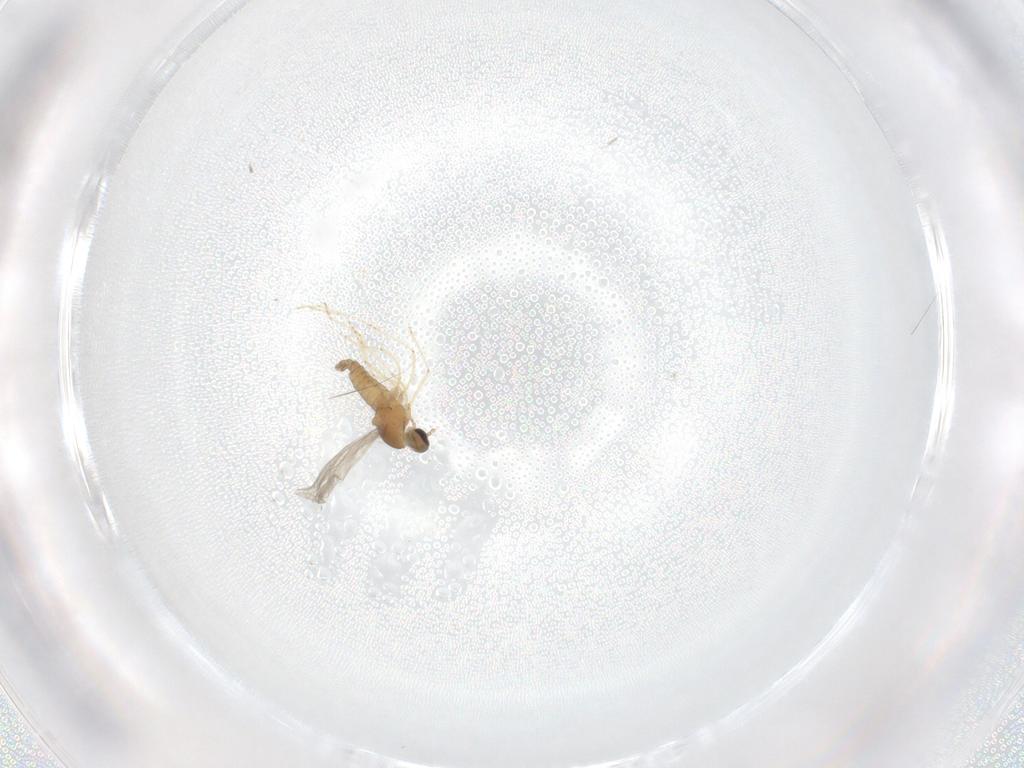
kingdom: Animalia
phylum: Arthropoda
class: Insecta
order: Diptera
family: Cecidomyiidae
